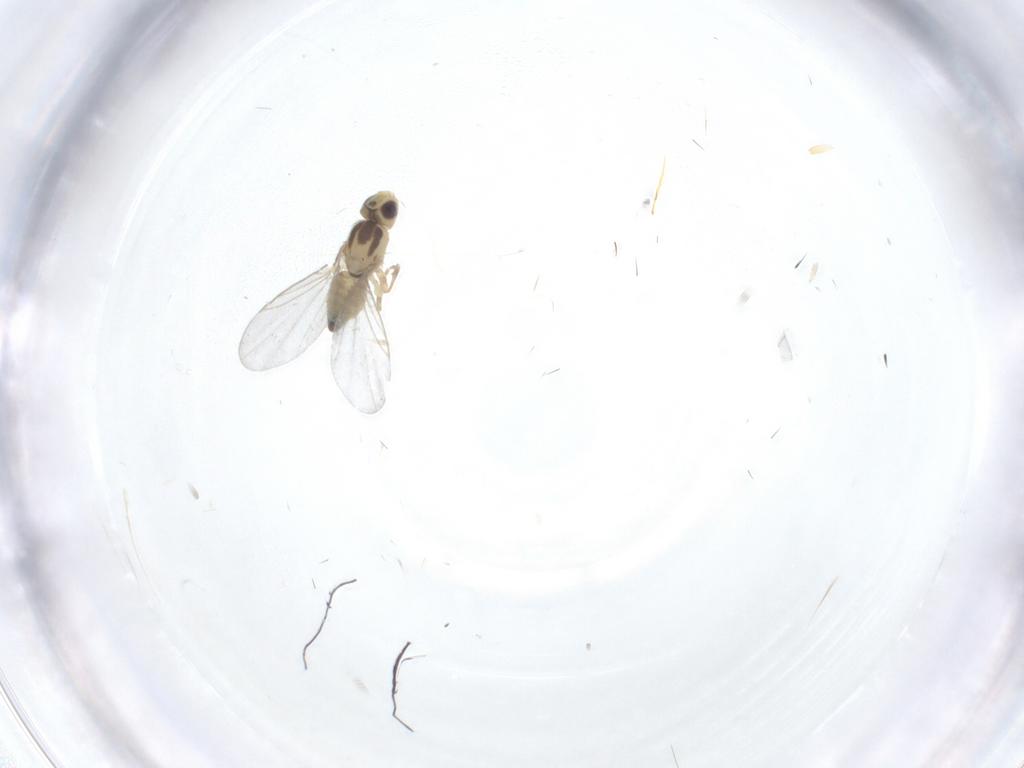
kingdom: Animalia
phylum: Arthropoda
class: Insecta
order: Diptera
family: Agromyzidae
